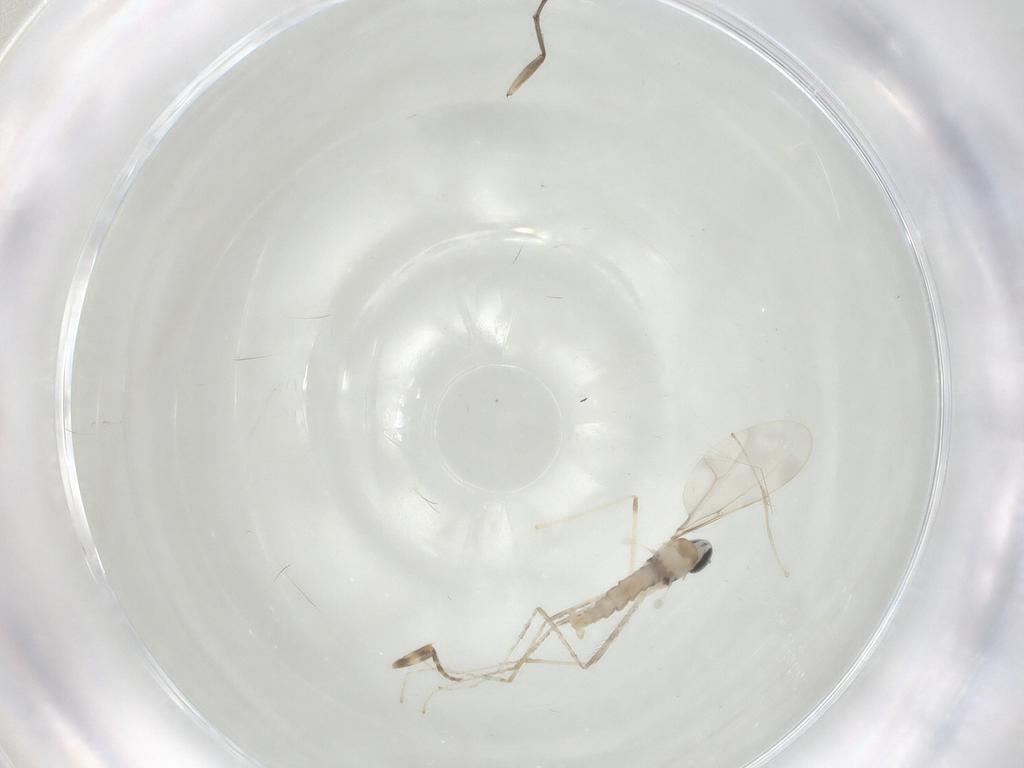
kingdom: Animalia
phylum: Arthropoda
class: Insecta
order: Diptera
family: Cecidomyiidae
